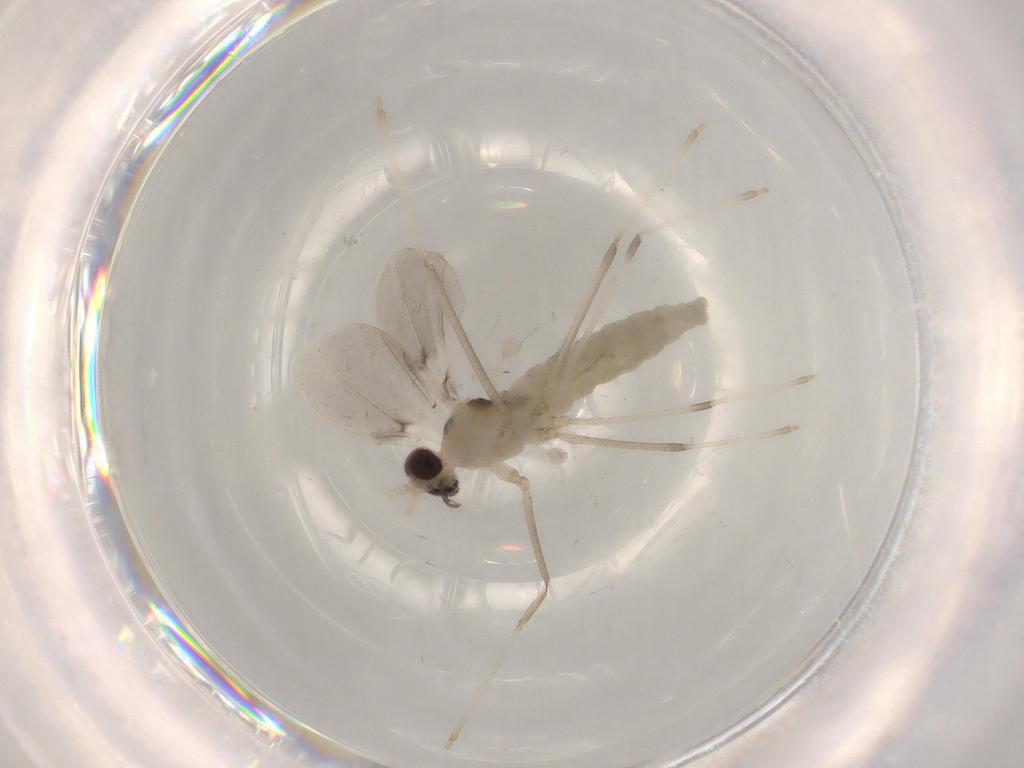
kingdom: Animalia
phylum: Arthropoda
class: Insecta
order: Diptera
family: Cecidomyiidae
